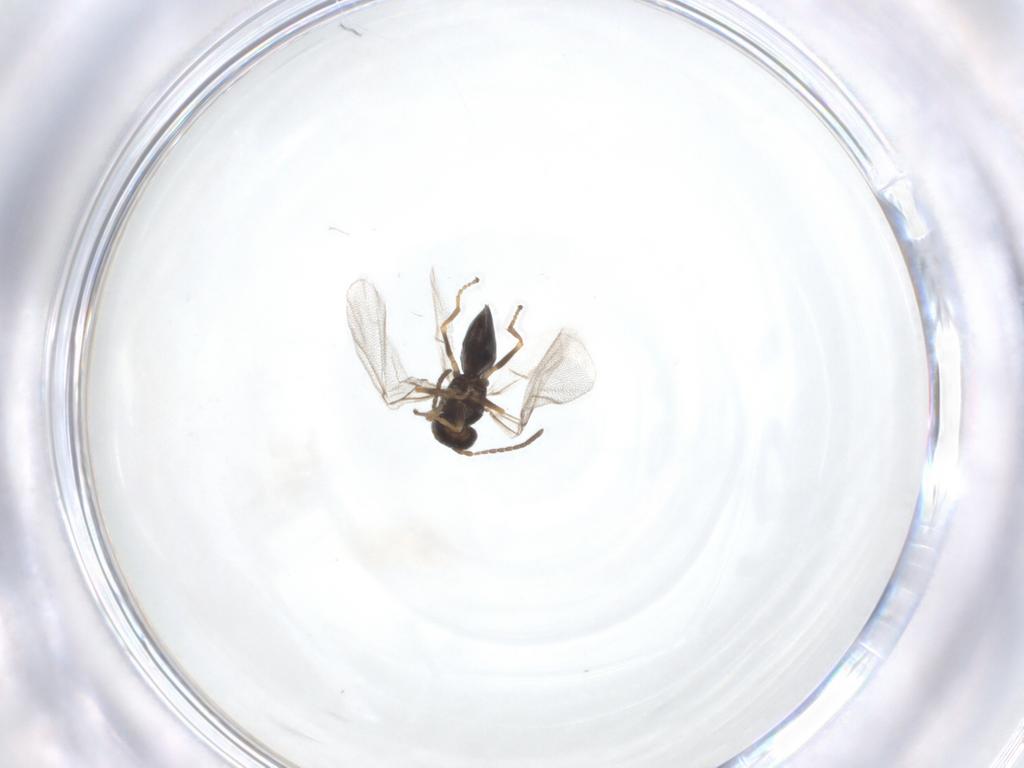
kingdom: Animalia
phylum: Arthropoda
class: Insecta
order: Hymenoptera
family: Cynipidae
